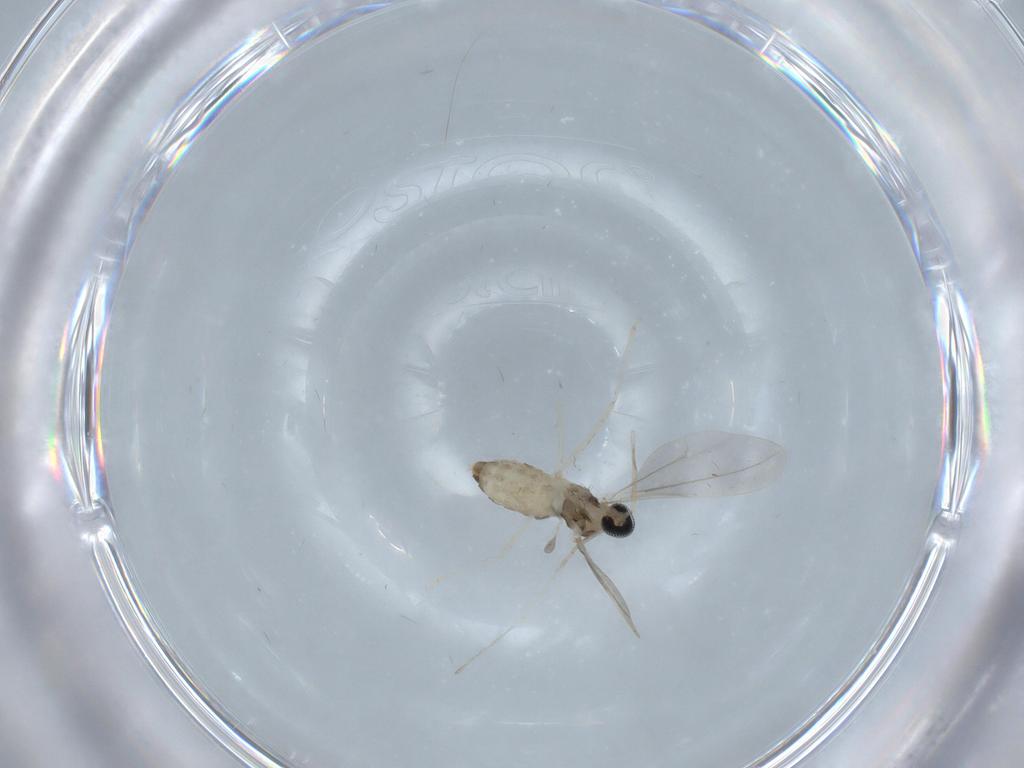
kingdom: Animalia
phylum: Arthropoda
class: Insecta
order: Diptera
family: Cecidomyiidae
